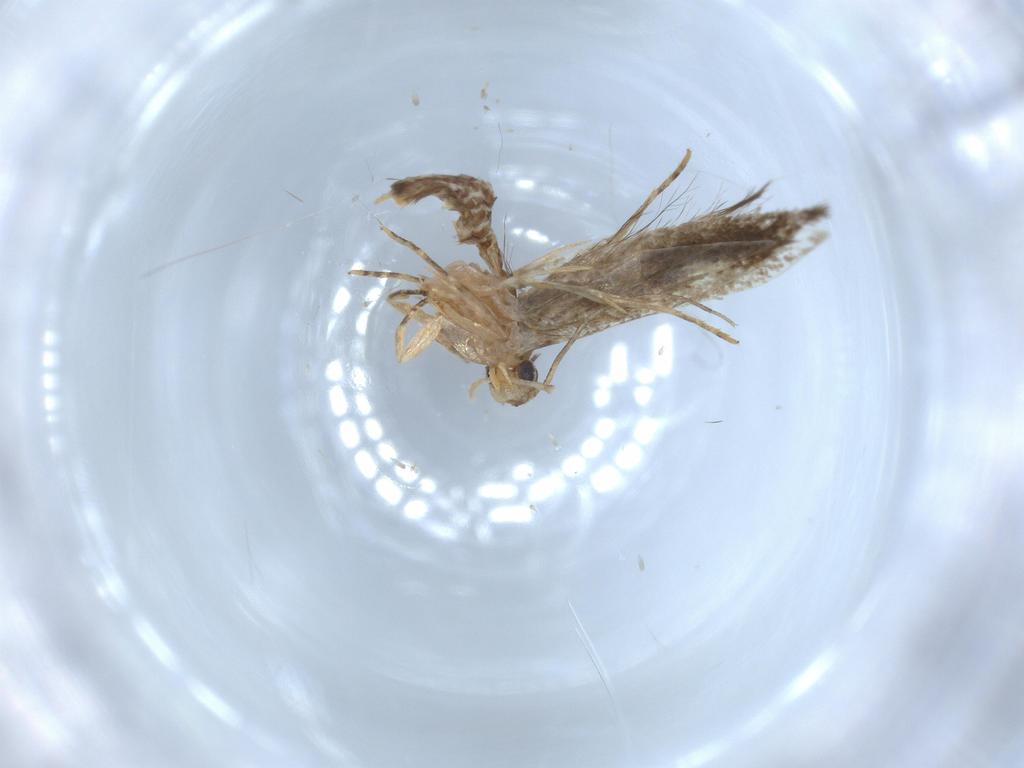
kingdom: Animalia
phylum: Arthropoda
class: Insecta
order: Lepidoptera
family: Tineidae
